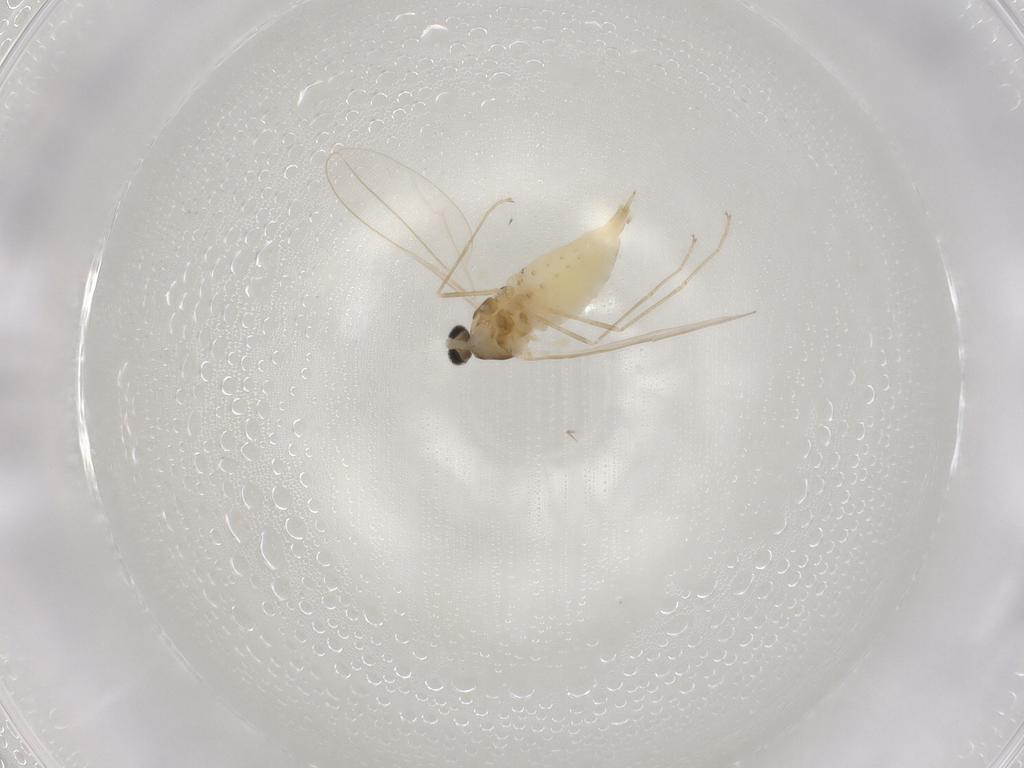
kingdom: Animalia
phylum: Arthropoda
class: Insecta
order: Diptera
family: Cecidomyiidae
